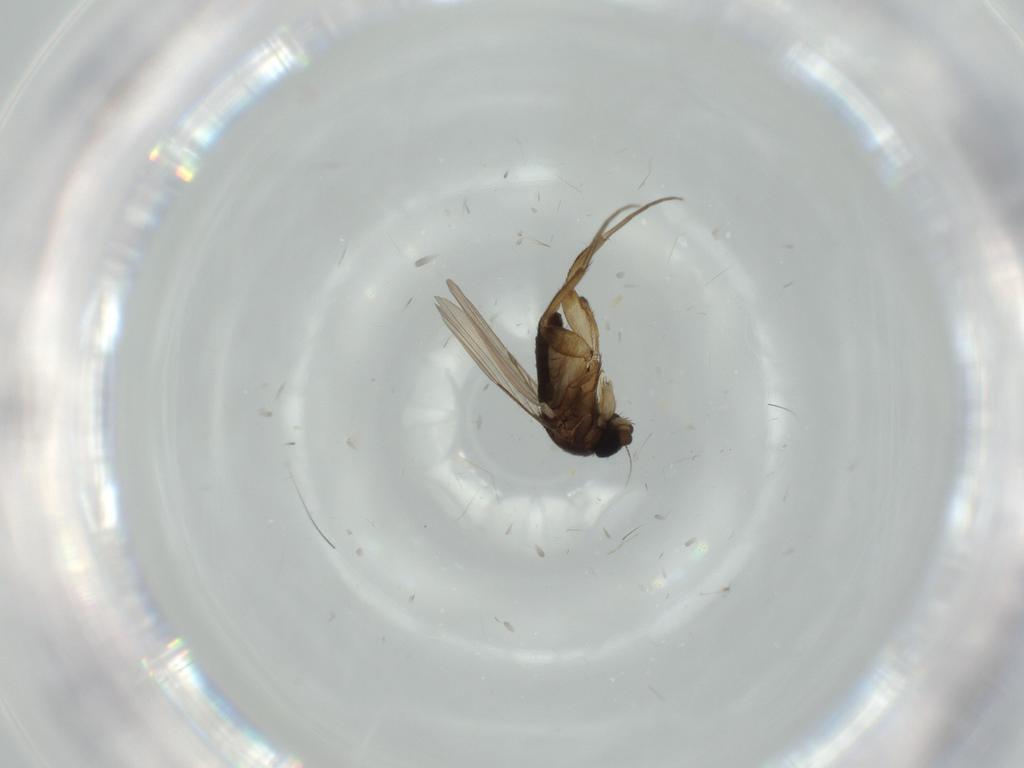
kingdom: Animalia
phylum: Arthropoda
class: Insecta
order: Diptera
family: Phoridae
